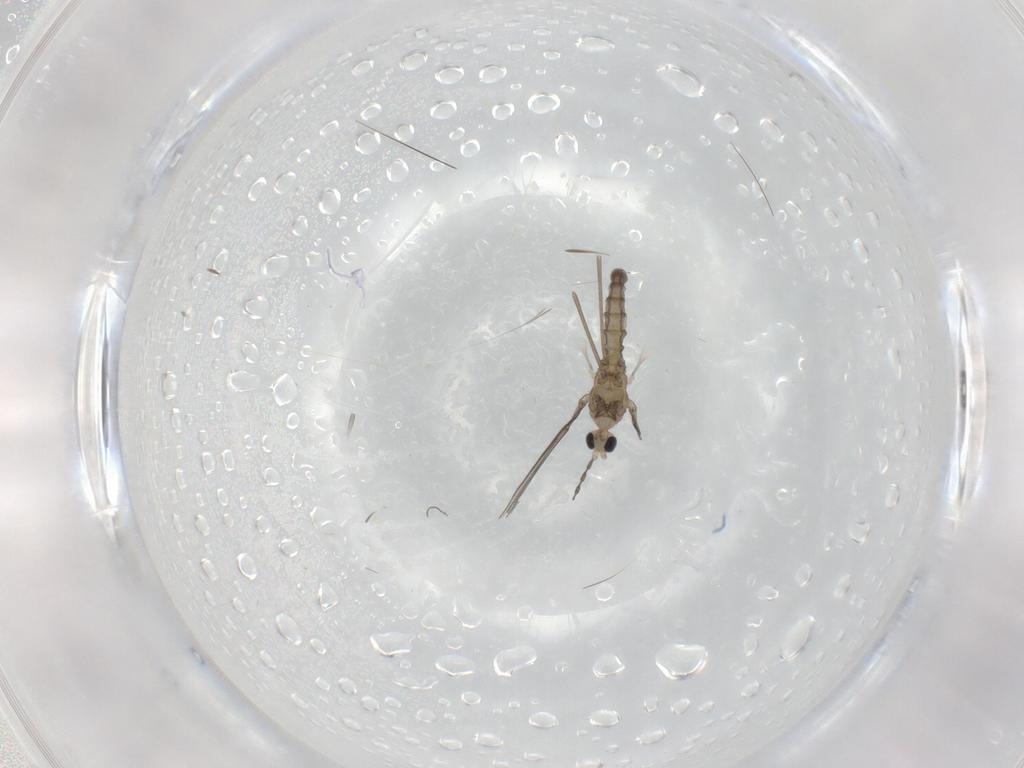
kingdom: Animalia
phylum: Arthropoda
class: Insecta
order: Diptera
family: Cecidomyiidae
